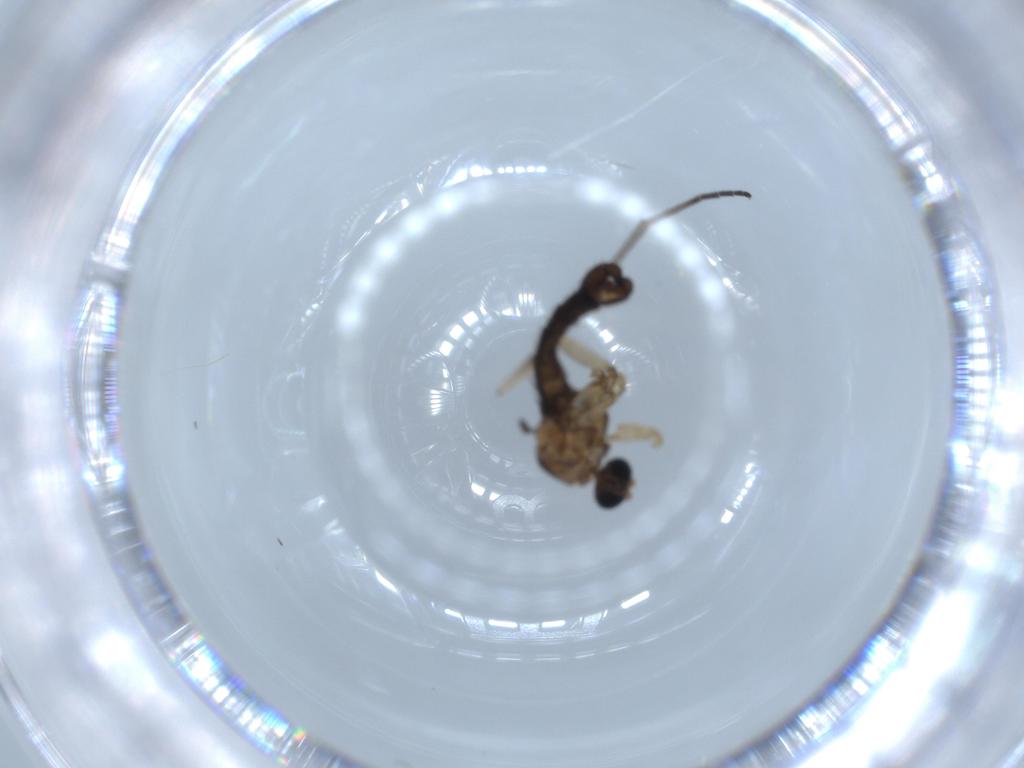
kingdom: Animalia
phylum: Arthropoda
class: Insecta
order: Diptera
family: Sciaridae
